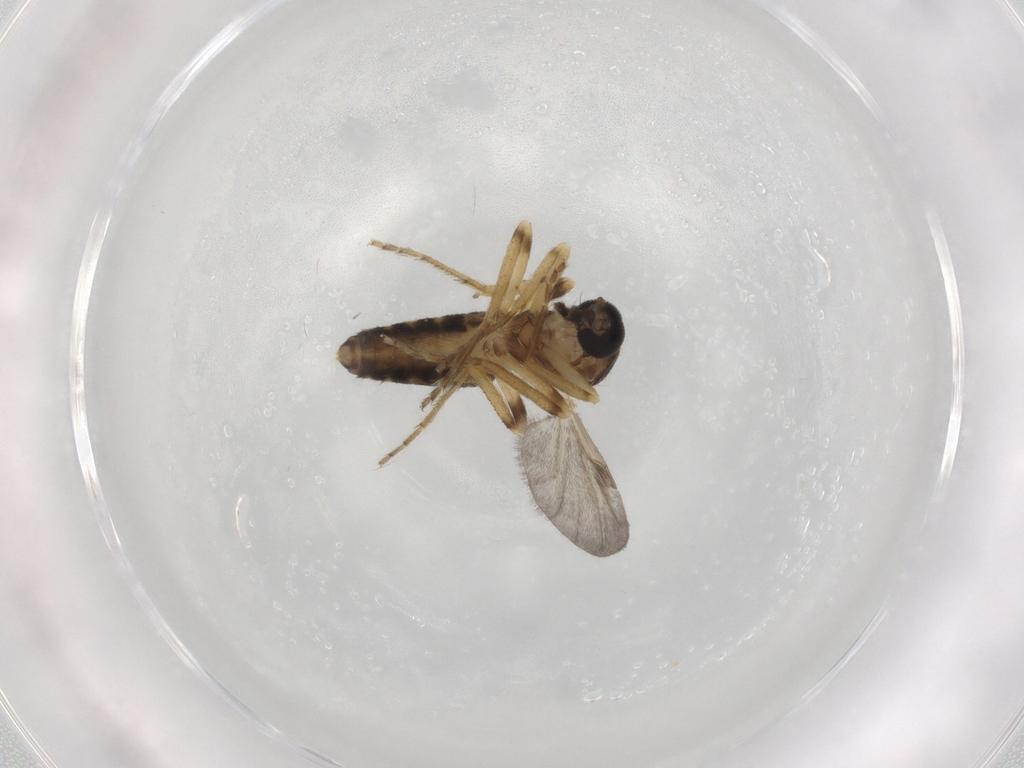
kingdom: Animalia
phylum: Arthropoda
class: Insecta
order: Diptera
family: Ceratopogonidae
